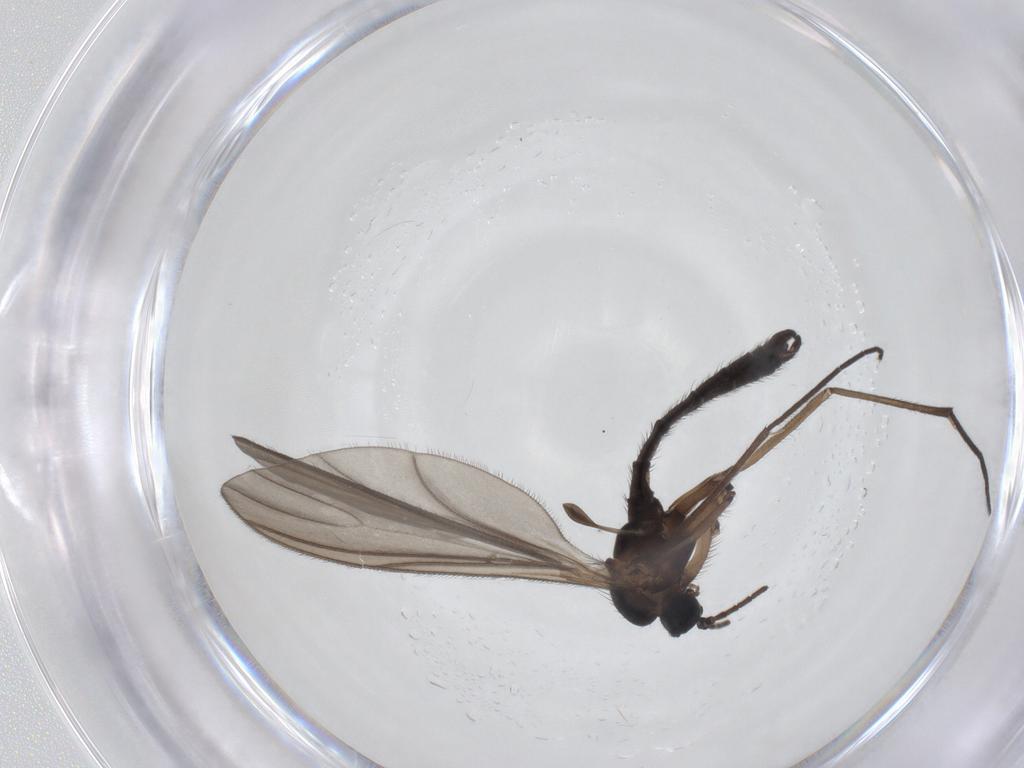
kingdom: Animalia
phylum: Arthropoda
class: Insecta
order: Diptera
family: Sciaridae
